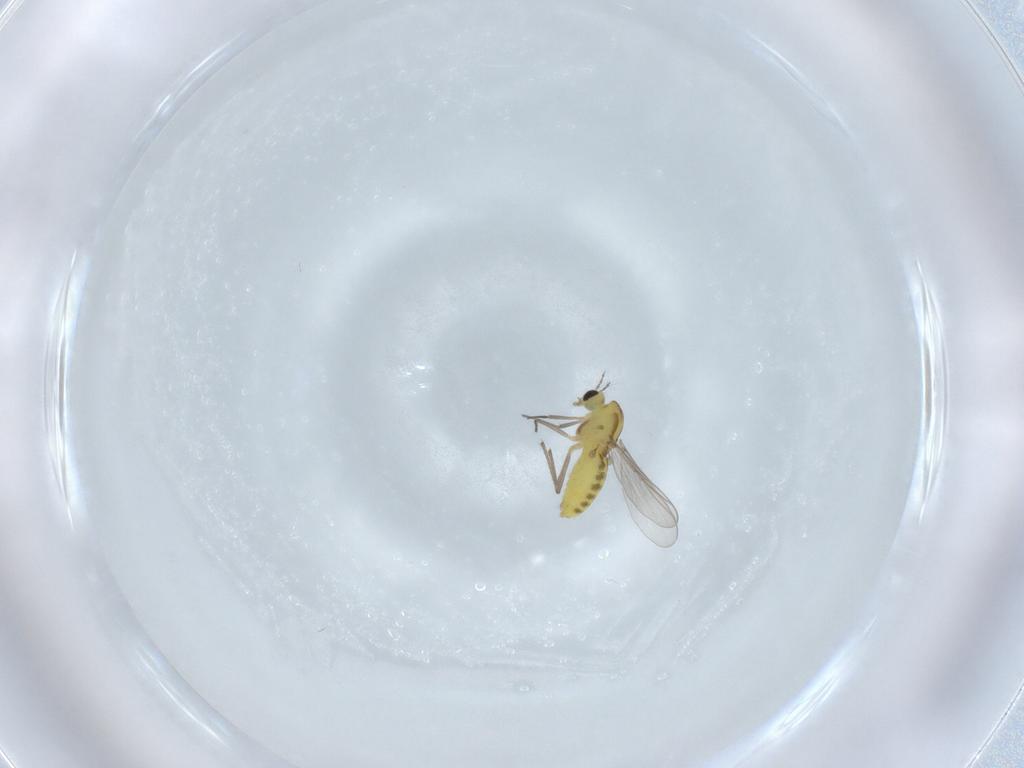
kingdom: Animalia
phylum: Arthropoda
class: Insecta
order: Diptera
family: Chironomidae
